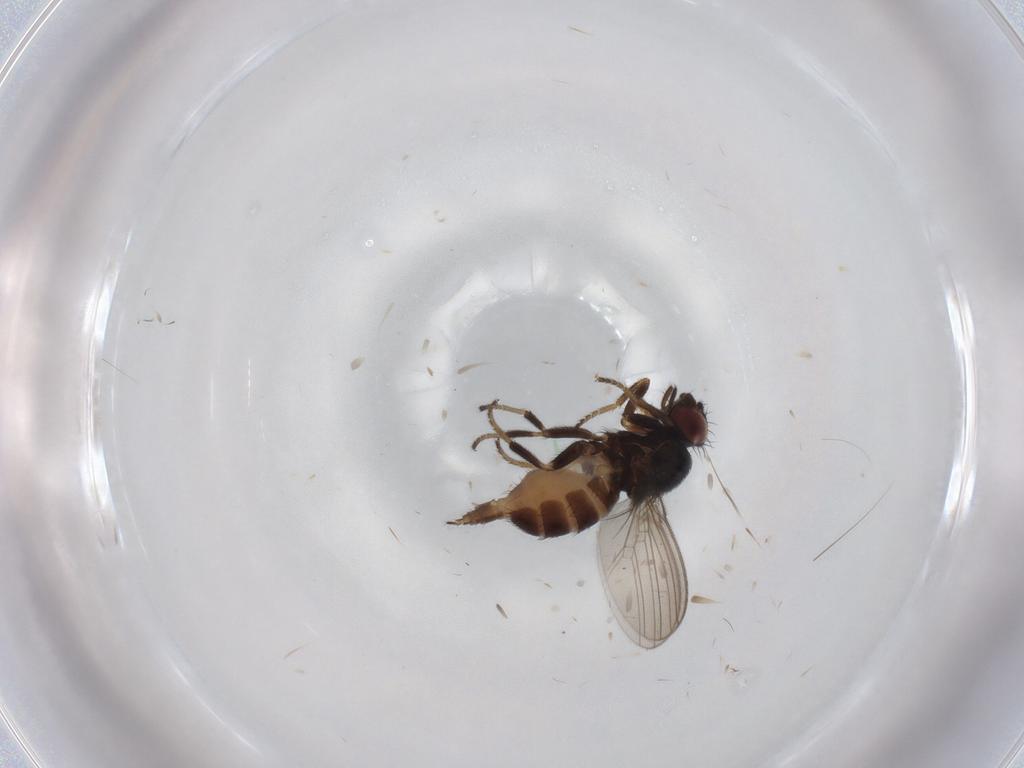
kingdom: Animalia
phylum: Arthropoda
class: Insecta
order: Diptera
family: Milichiidae
